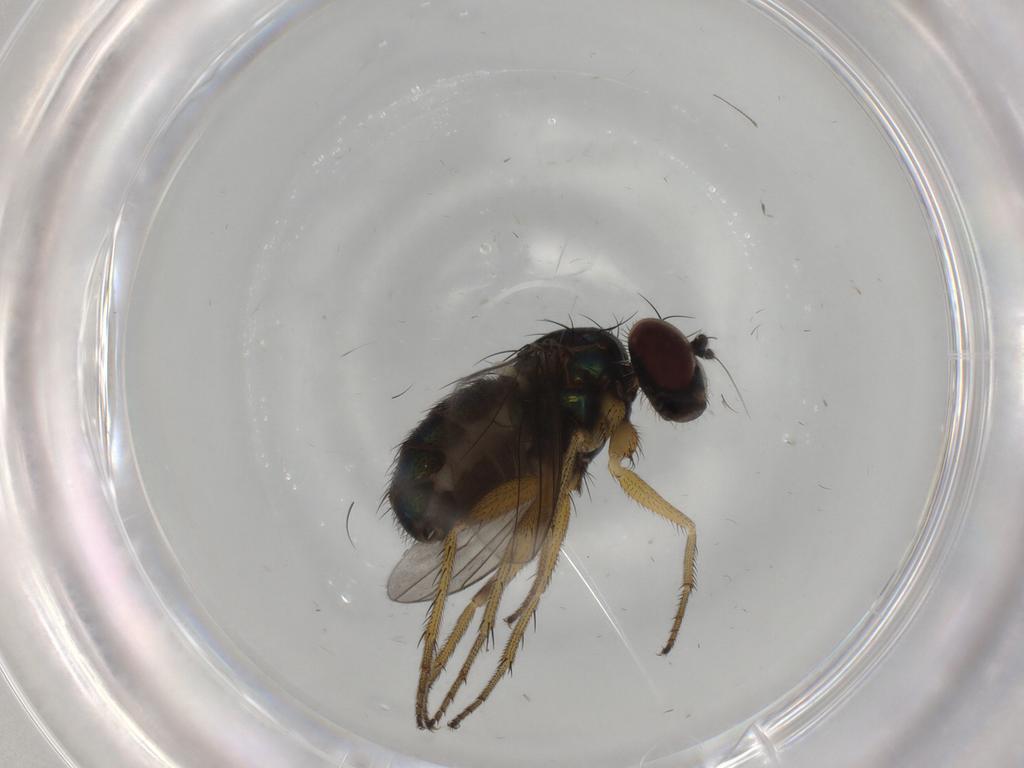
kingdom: Animalia
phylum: Arthropoda
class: Insecta
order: Diptera
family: Dolichopodidae
